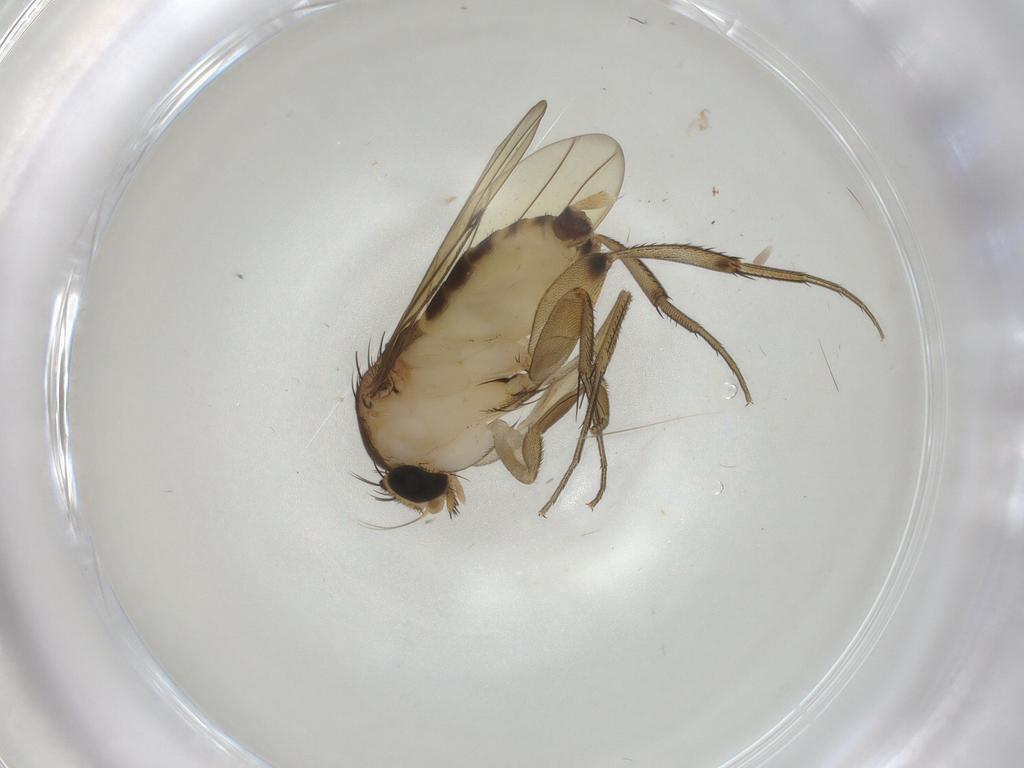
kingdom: Animalia
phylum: Arthropoda
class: Insecta
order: Diptera
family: Phoridae
